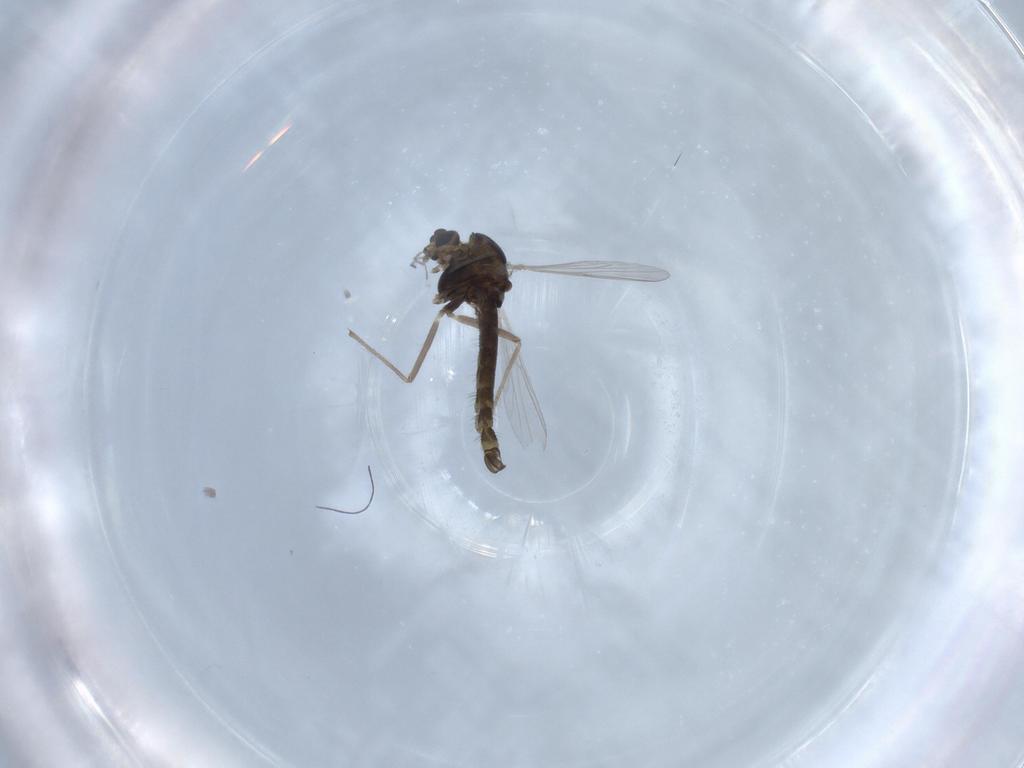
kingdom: Animalia
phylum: Arthropoda
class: Insecta
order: Diptera
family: Chironomidae
